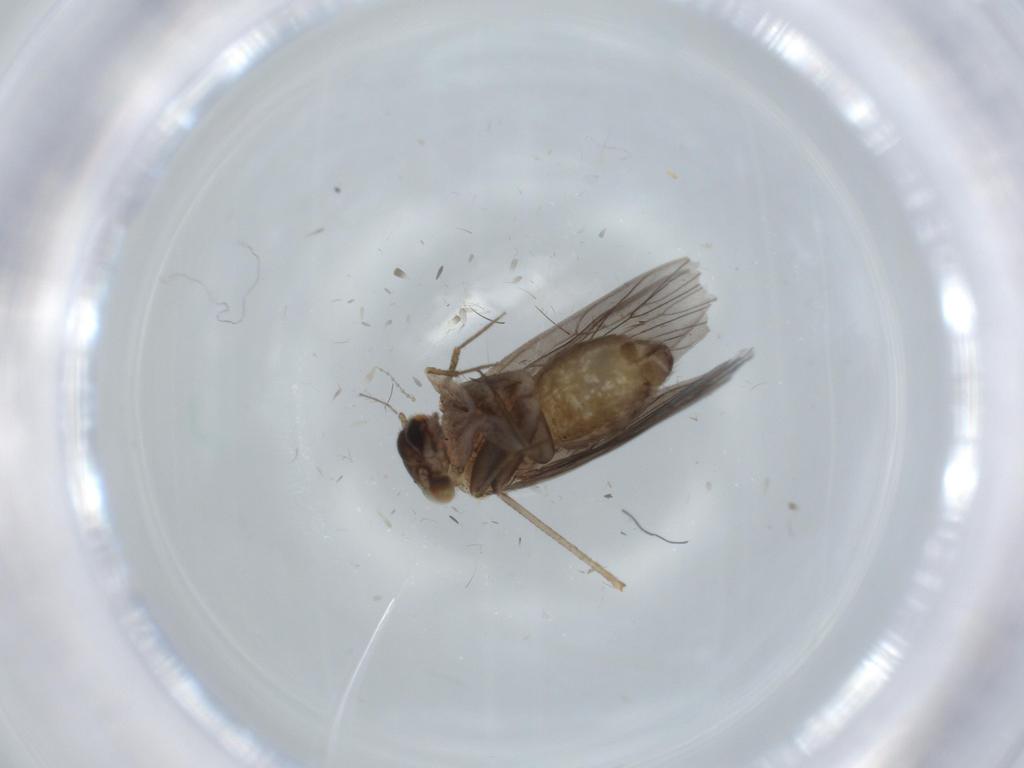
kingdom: Animalia
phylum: Arthropoda
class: Insecta
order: Psocodea
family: Lepidopsocidae
